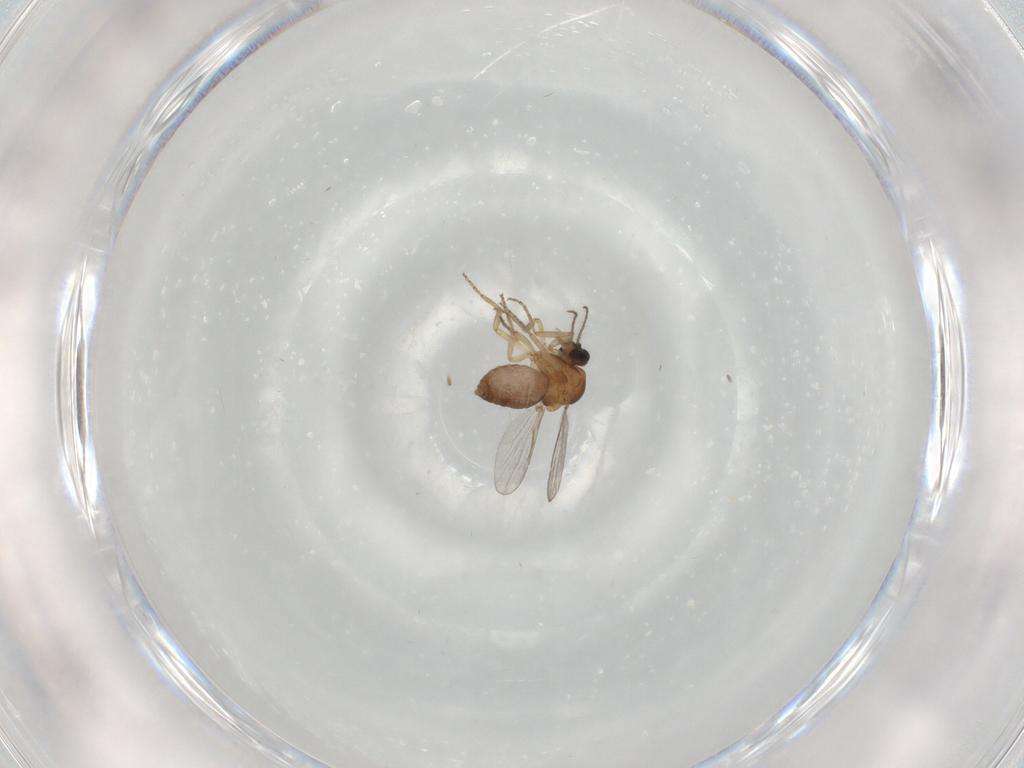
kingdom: Animalia
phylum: Arthropoda
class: Insecta
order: Diptera
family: Ceratopogonidae
